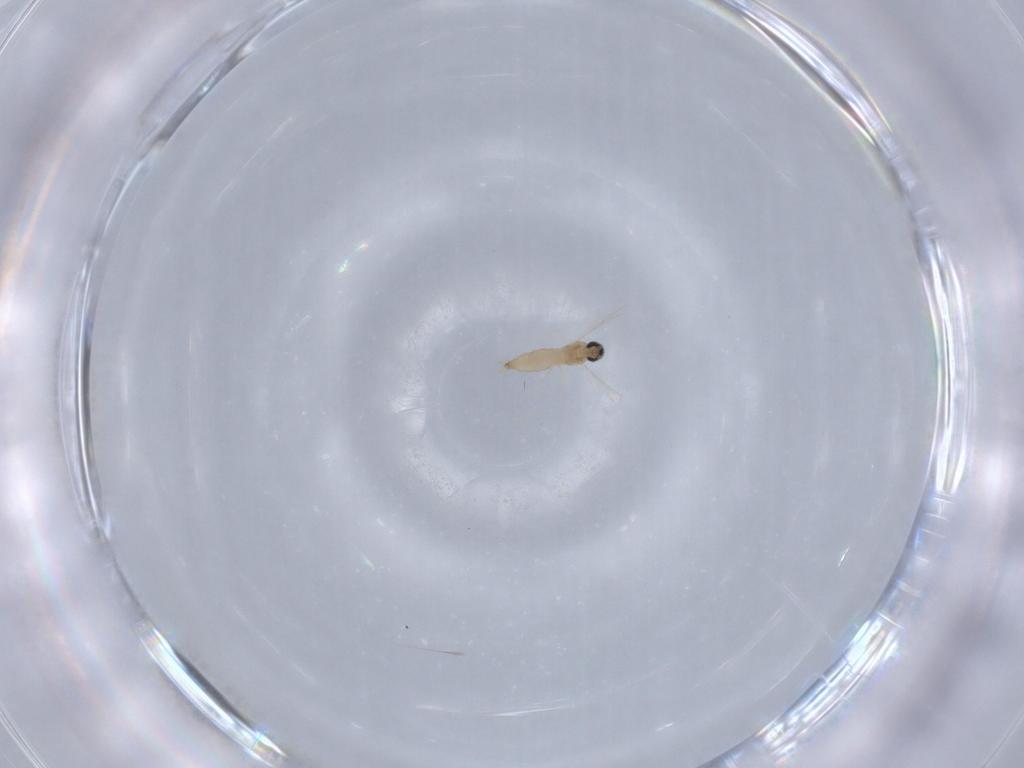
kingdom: Animalia
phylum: Arthropoda
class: Insecta
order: Diptera
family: Cecidomyiidae
